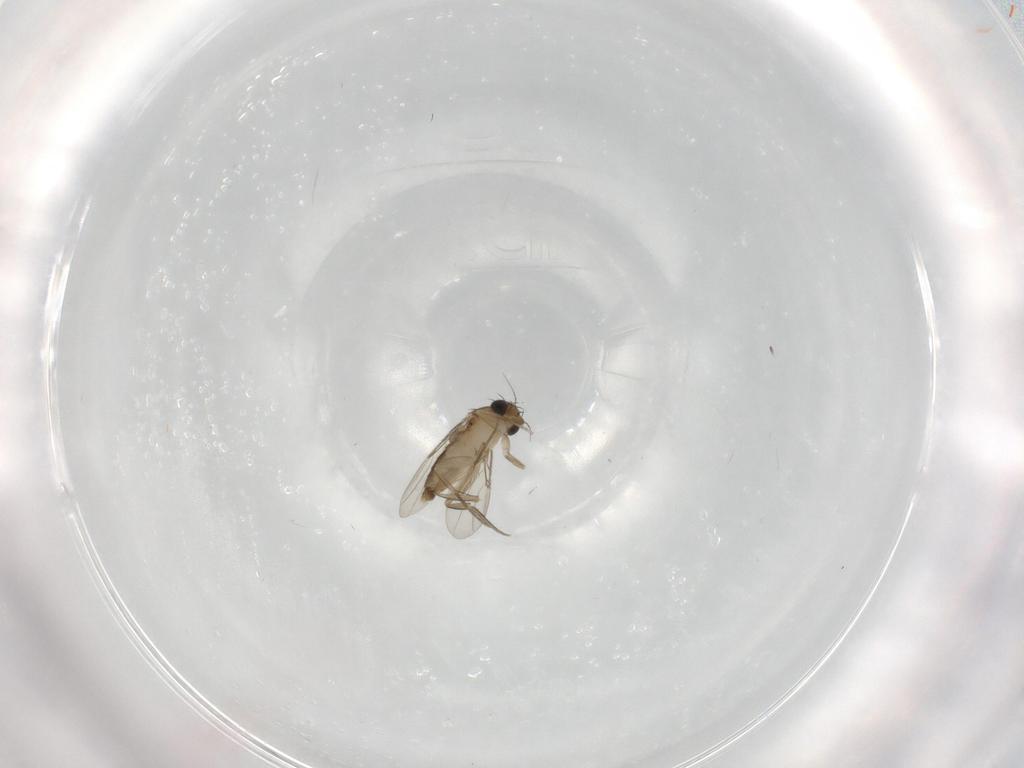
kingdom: Animalia
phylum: Arthropoda
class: Insecta
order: Diptera
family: Phoridae
